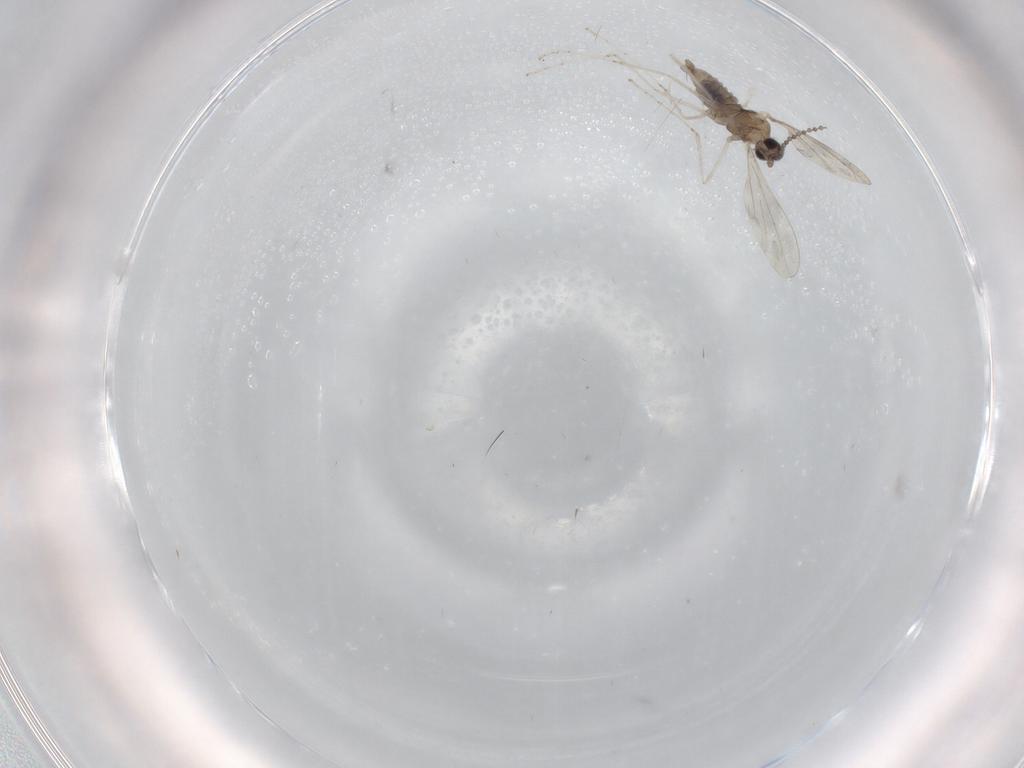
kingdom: Animalia
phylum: Arthropoda
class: Insecta
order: Diptera
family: Cecidomyiidae
